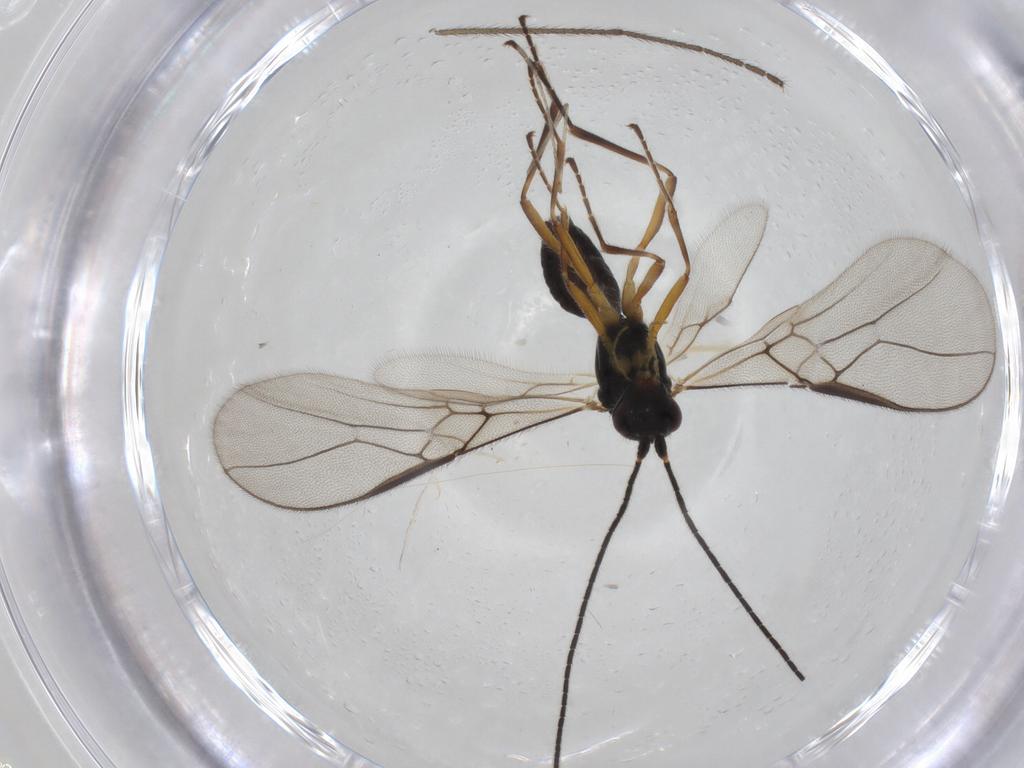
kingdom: Animalia
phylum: Arthropoda
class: Insecta
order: Hymenoptera
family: Braconidae
